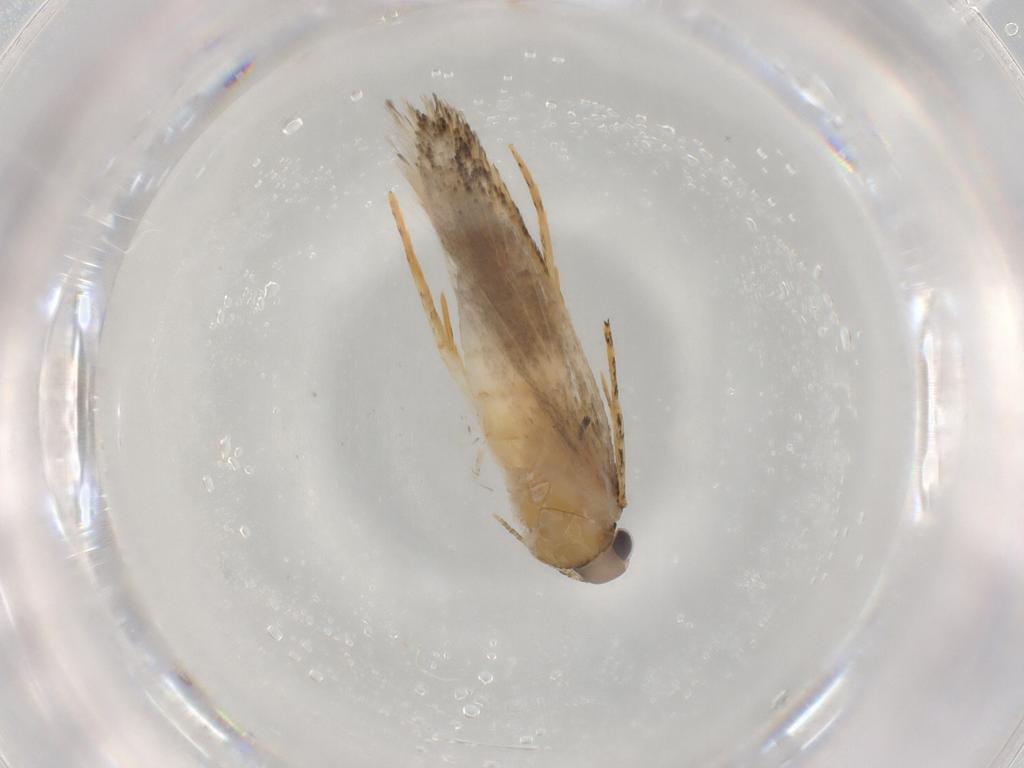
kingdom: Animalia
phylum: Arthropoda
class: Insecta
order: Lepidoptera
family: Autostichidae
